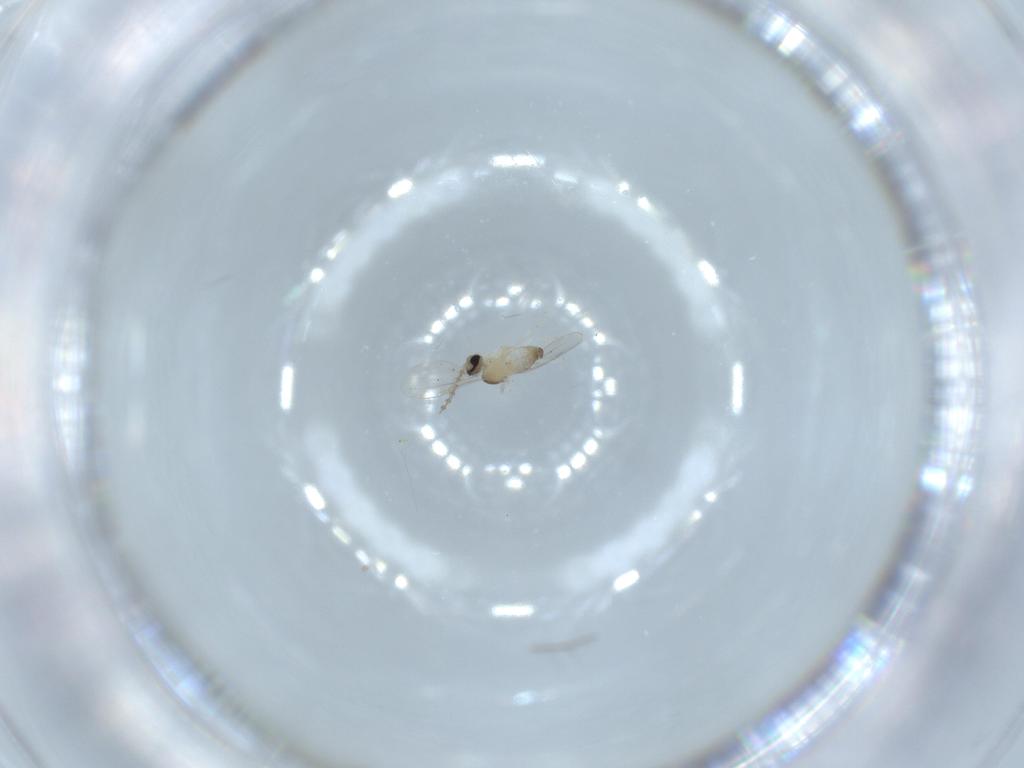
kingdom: Animalia
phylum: Arthropoda
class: Insecta
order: Diptera
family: Cecidomyiidae
